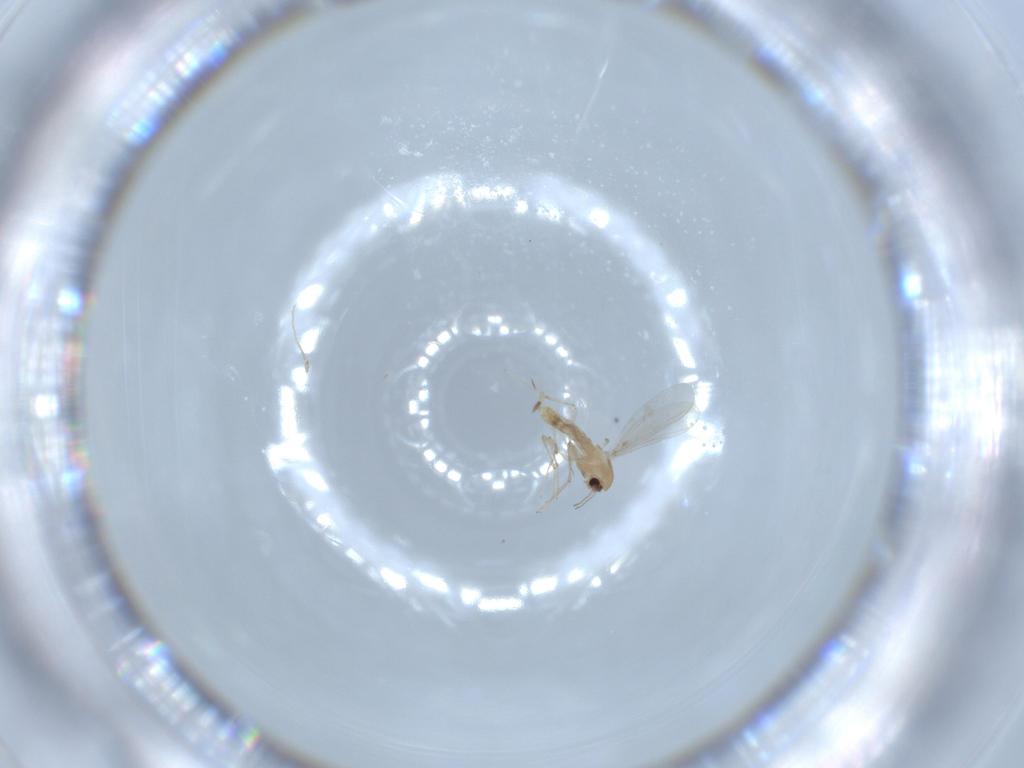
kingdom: Animalia
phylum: Arthropoda
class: Insecta
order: Diptera
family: Chironomidae
